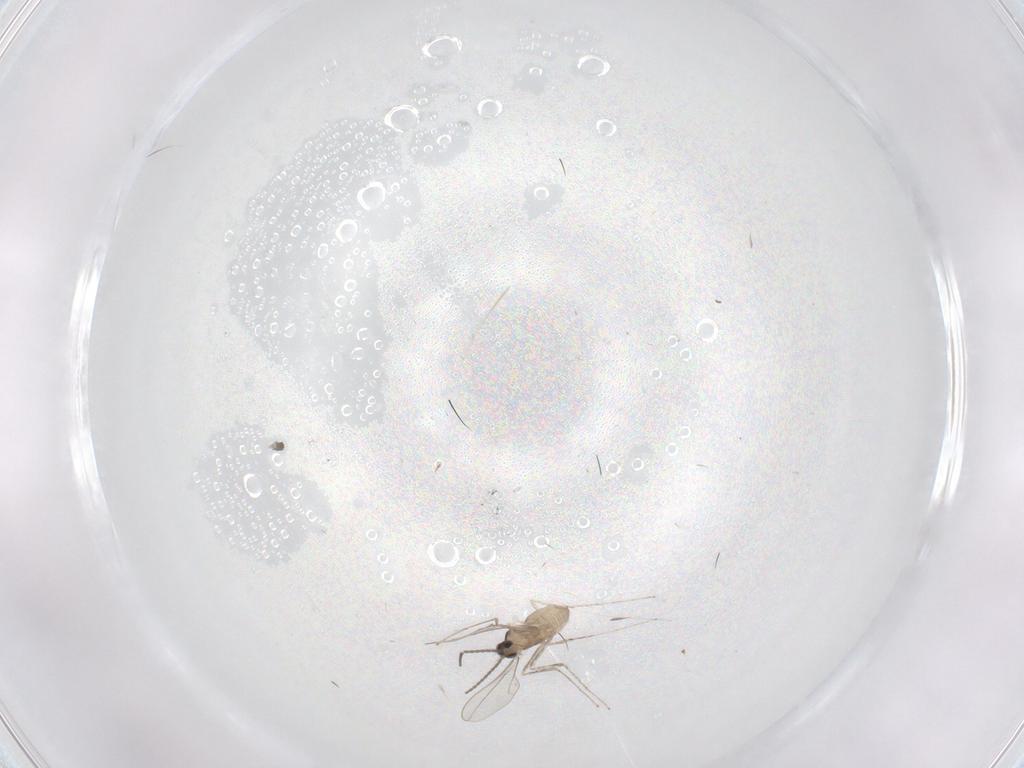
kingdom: Animalia
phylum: Arthropoda
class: Insecta
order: Diptera
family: Cecidomyiidae
